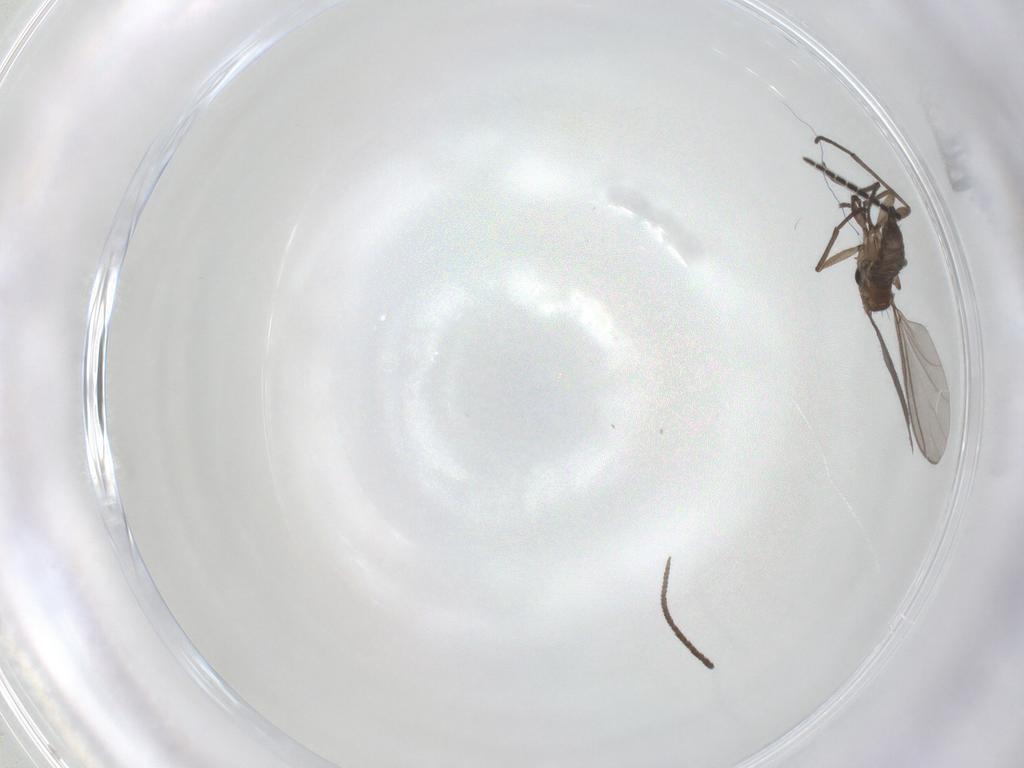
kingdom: Animalia
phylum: Arthropoda
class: Insecta
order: Diptera
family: Sciaridae
